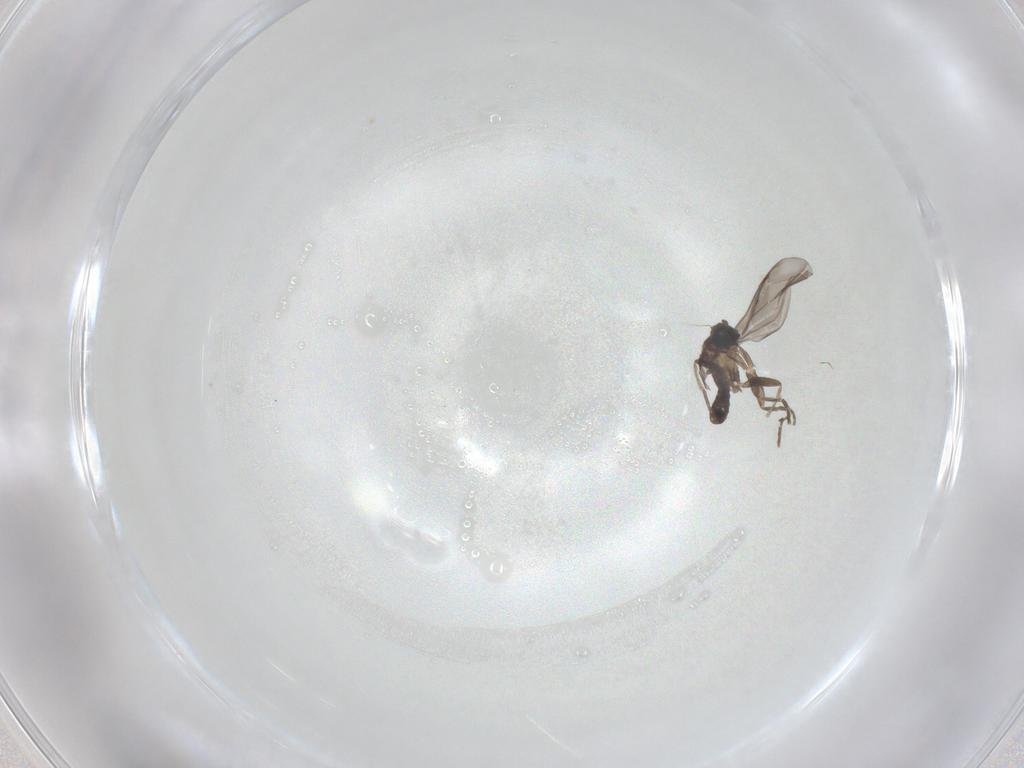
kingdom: Animalia
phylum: Arthropoda
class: Insecta
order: Diptera
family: Phoridae
